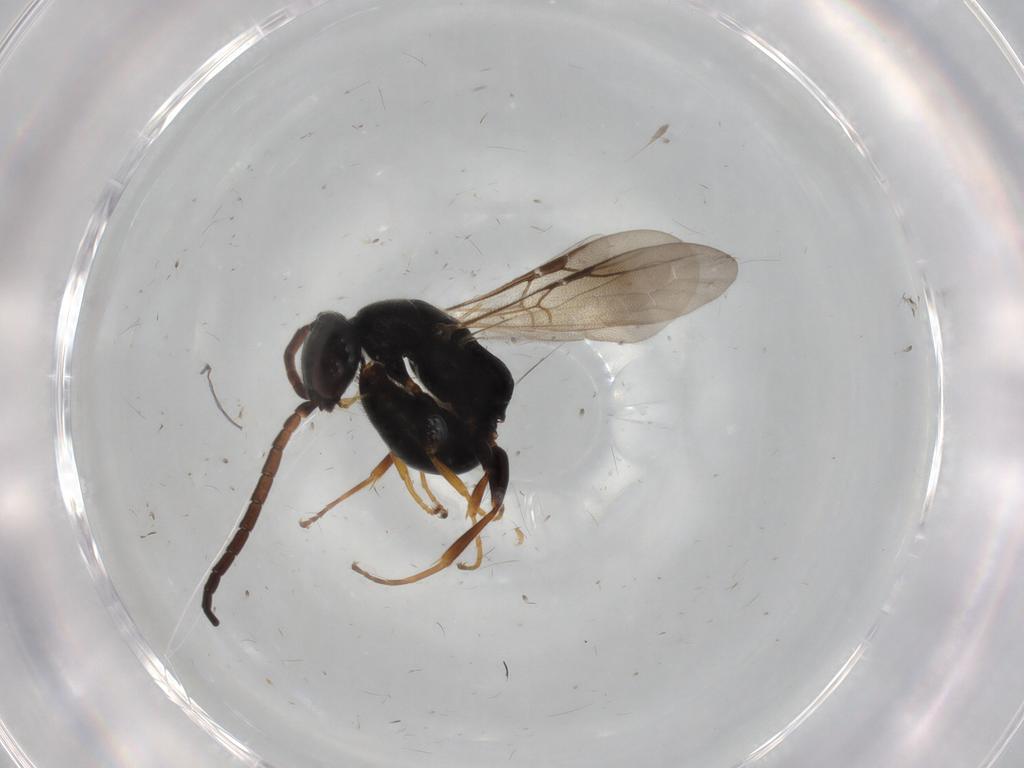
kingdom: Animalia
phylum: Arthropoda
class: Insecta
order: Hymenoptera
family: Bethylidae
